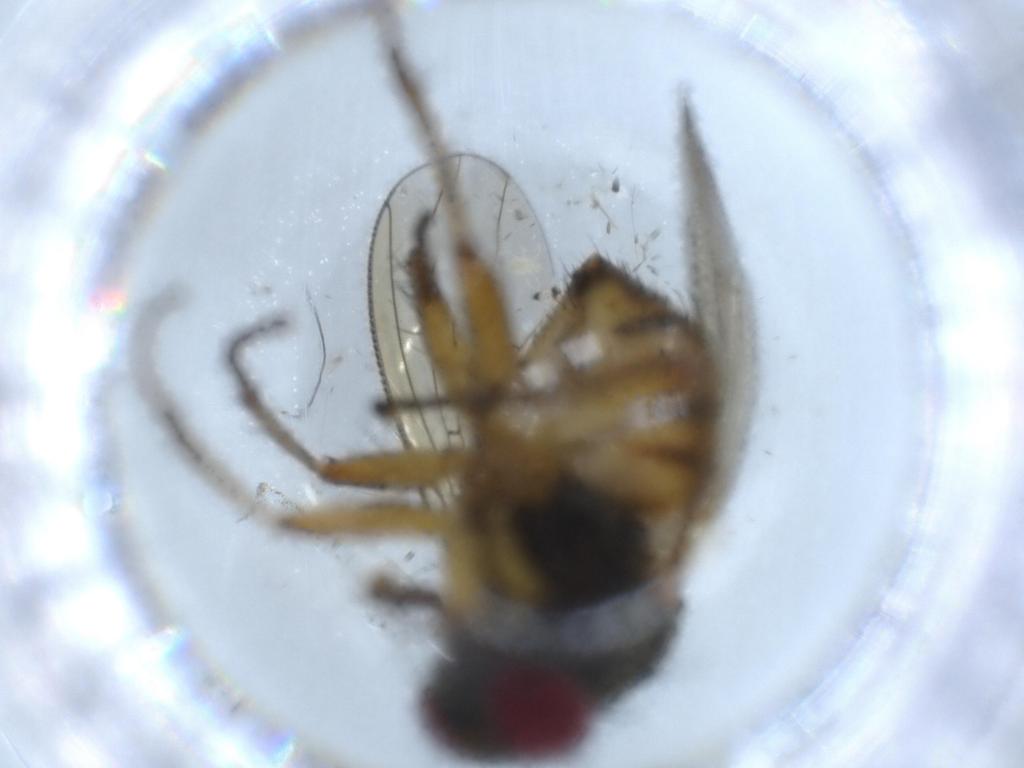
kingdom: Animalia
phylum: Arthropoda
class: Insecta
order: Diptera
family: Muscidae
